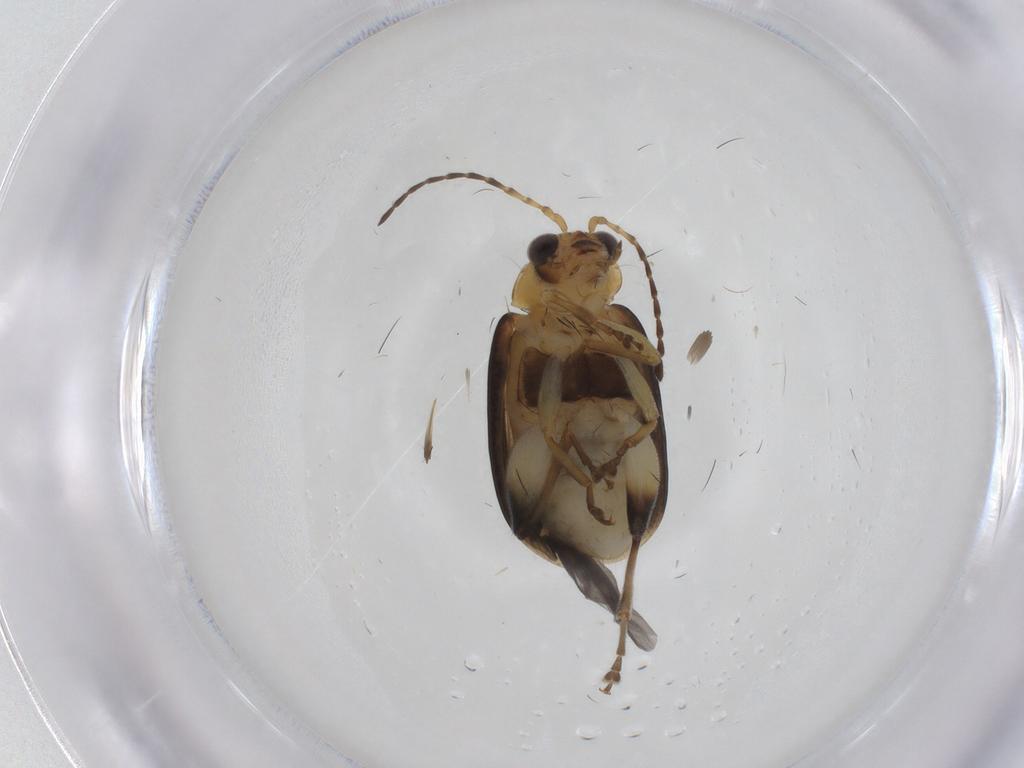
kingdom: Animalia
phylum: Arthropoda
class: Insecta
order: Coleoptera
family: Chrysomelidae
